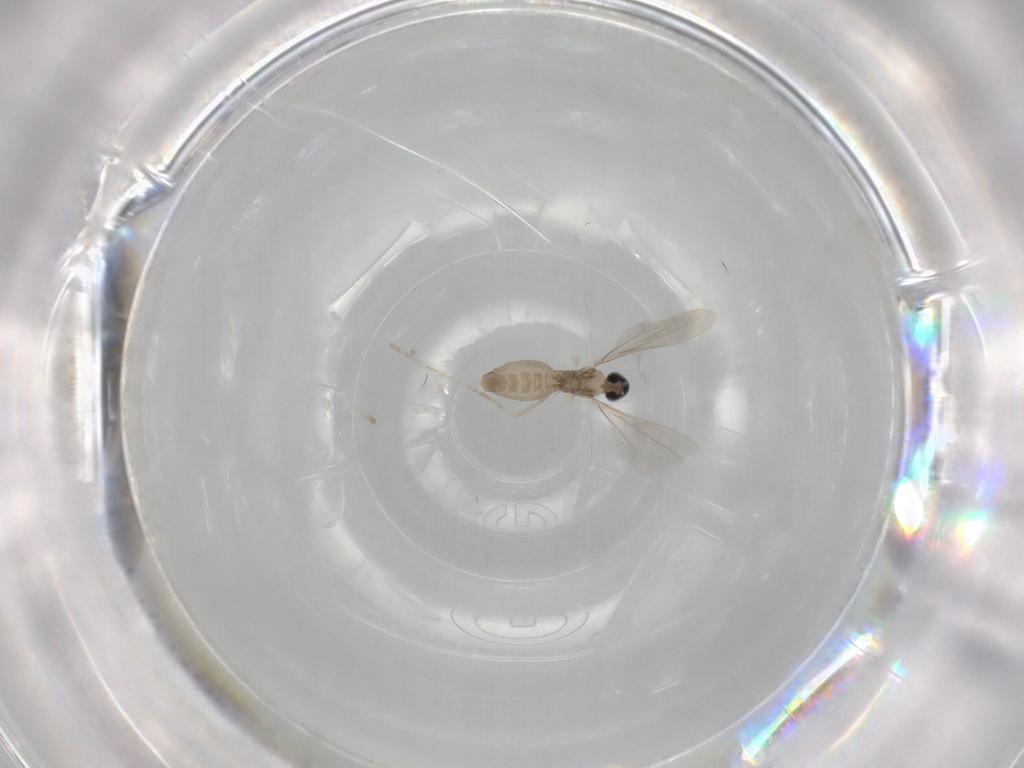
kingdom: Animalia
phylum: Arthropoda
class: Insecta
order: Diptera
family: Cecidomyiidae
